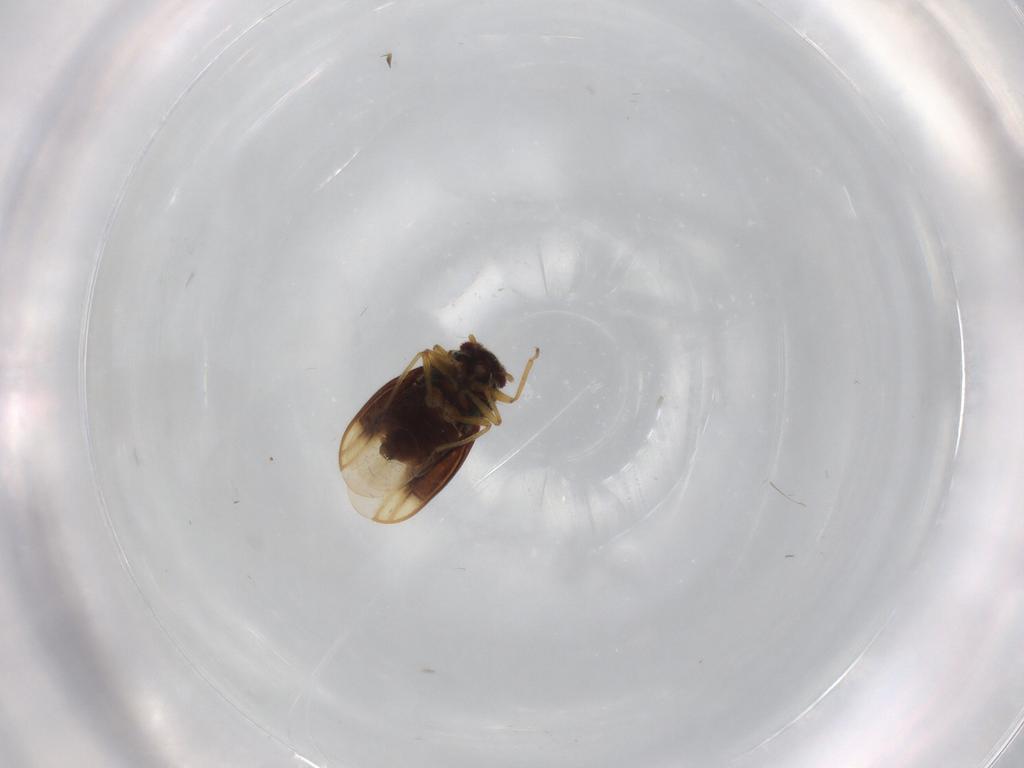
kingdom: Animalia
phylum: Arthropoda
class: Insecta
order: Hemiptera
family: Schizopteridae
